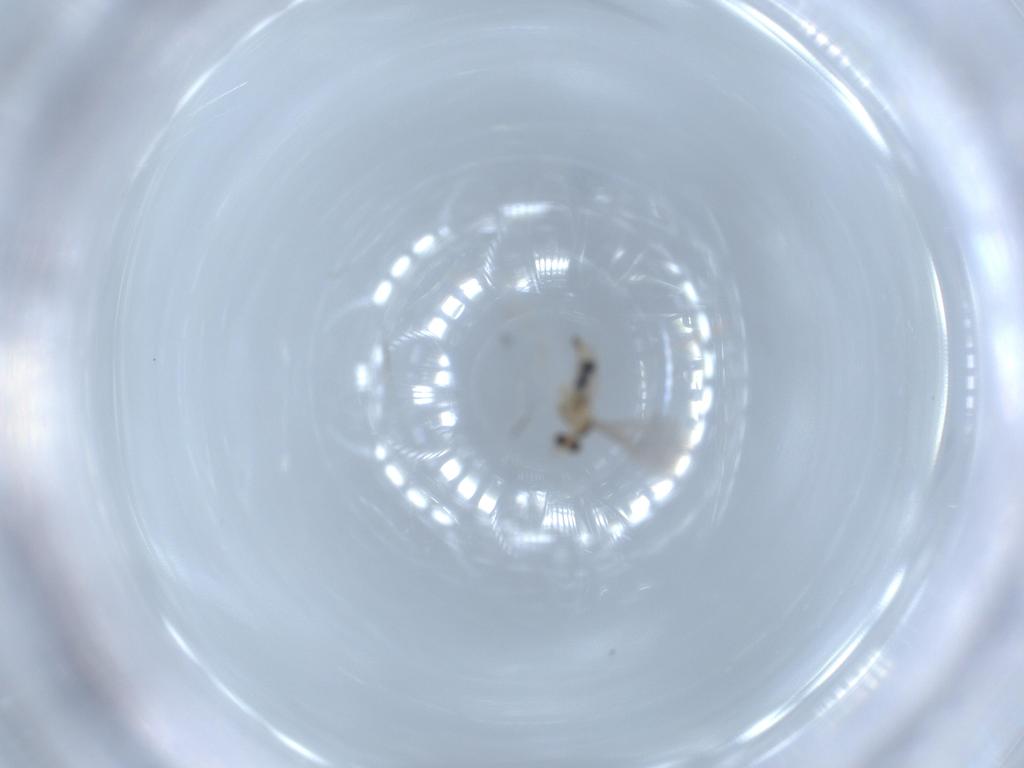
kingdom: Animalia
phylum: Arthropoda
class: Insecta
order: Diptera
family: Cecidomyiidae
